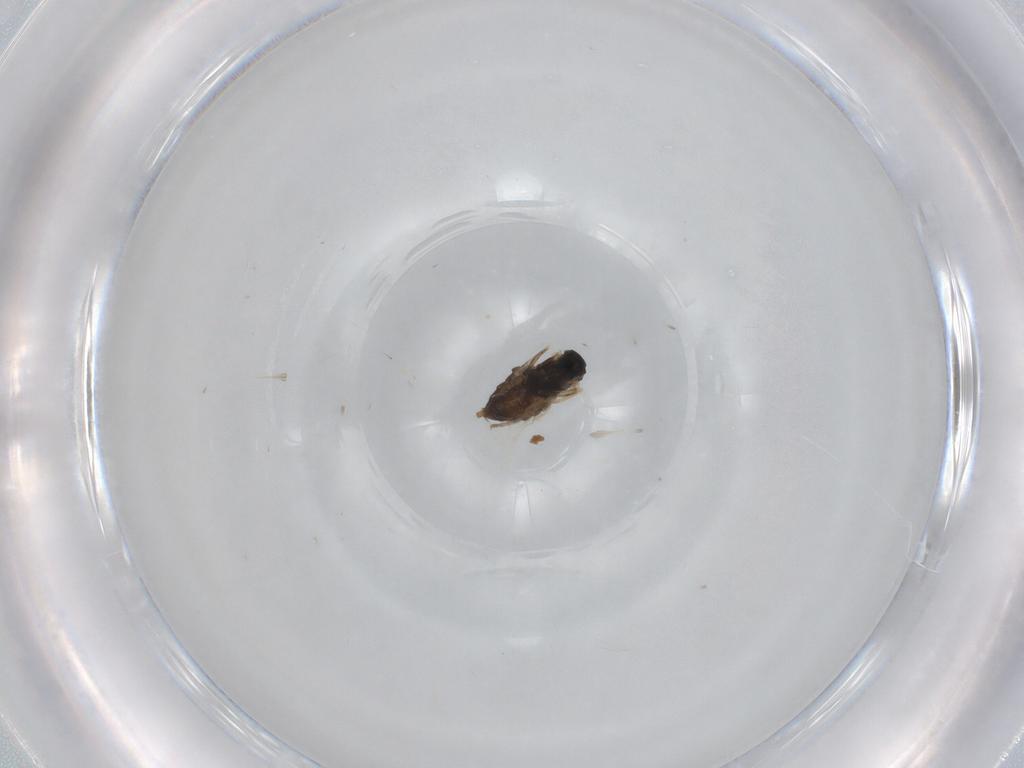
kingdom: Animalia
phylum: Arthropoda
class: Insecta
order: Diptera
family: Cecidomyiidae
